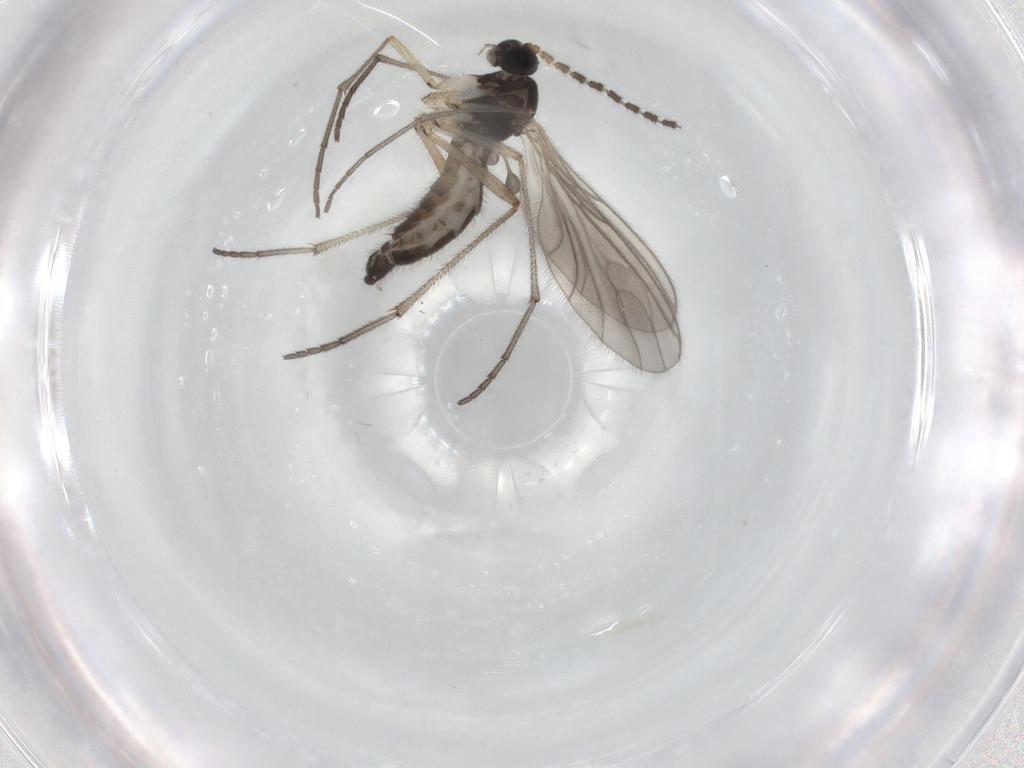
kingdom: Animalia
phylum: Arthropoda
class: Insecta
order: Diptera
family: Sciaridae
